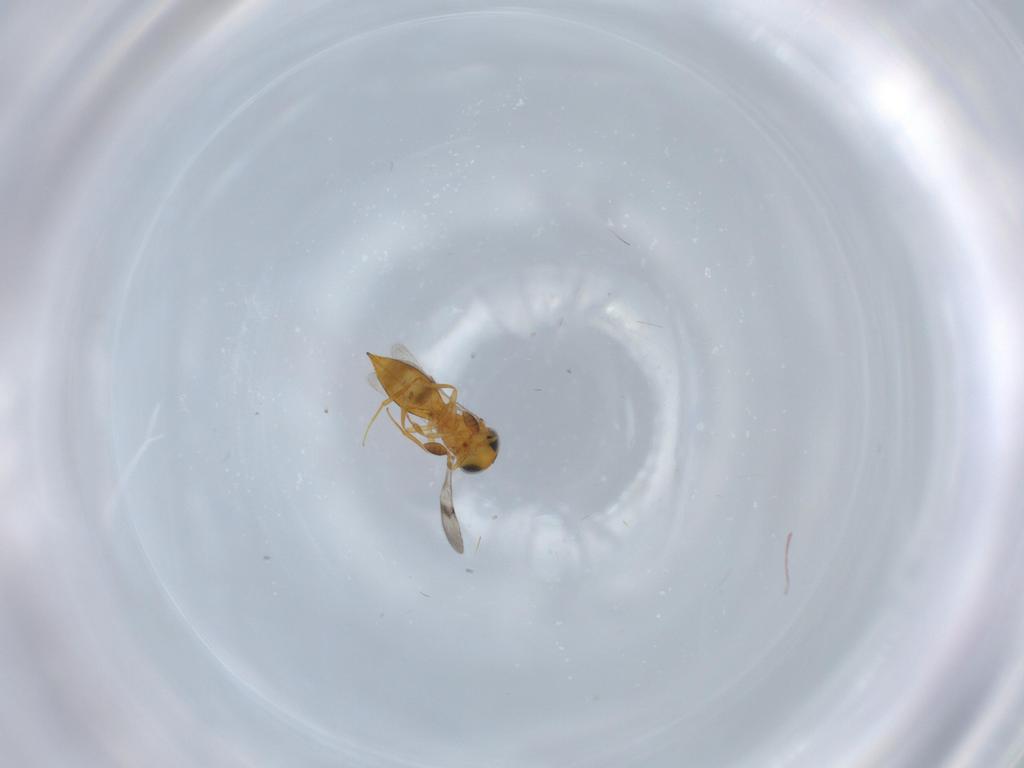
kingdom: Animalia
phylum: Arthropoda
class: Insecta
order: Hymenoptera
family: Scelionidae
